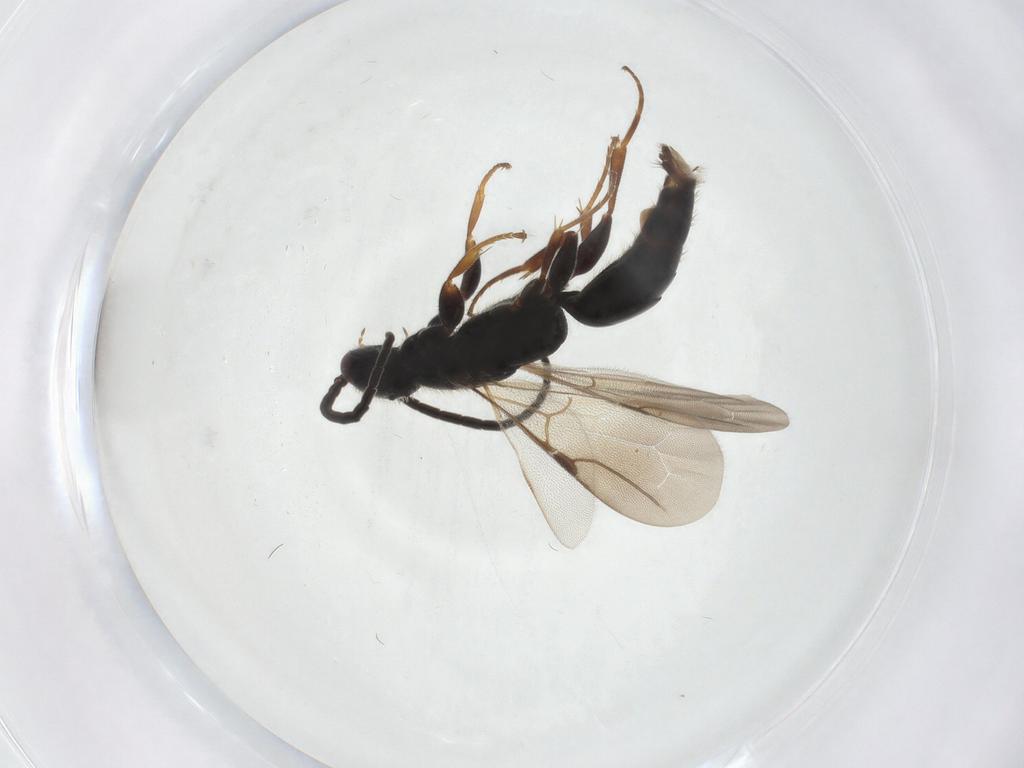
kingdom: Animalia
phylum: Arthropoda
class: Insecta
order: Hymenoptera
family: Bethylidae
